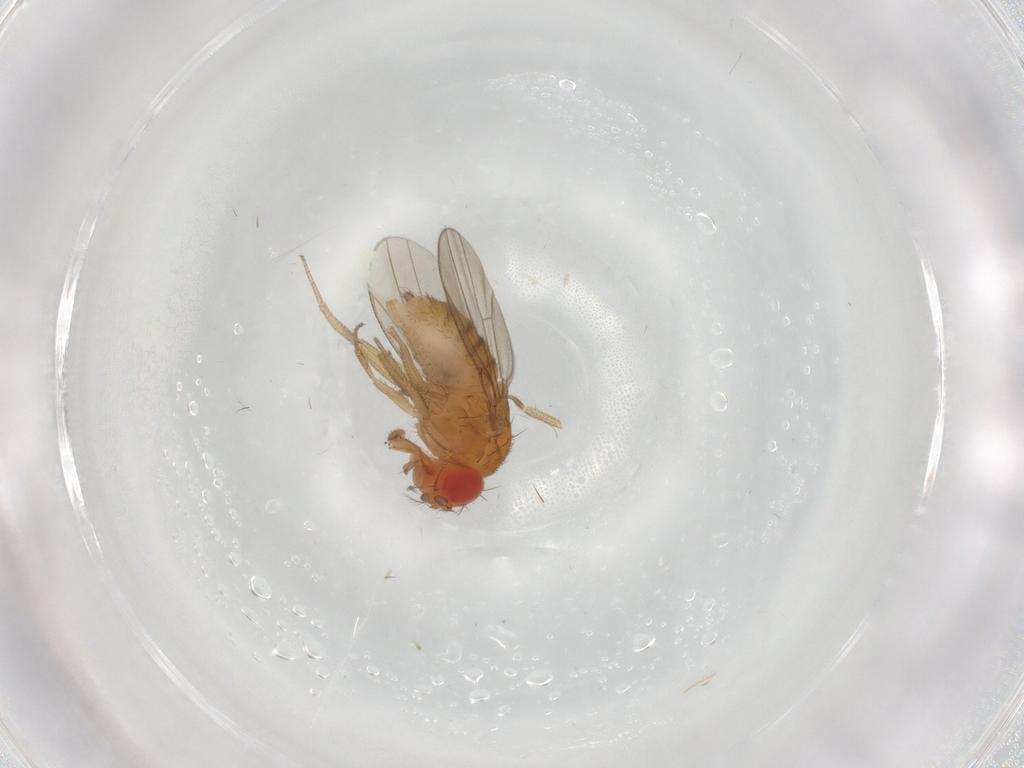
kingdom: Animalia
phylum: Arthropoda
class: Insecta
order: Diptera
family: Drosophilidae
